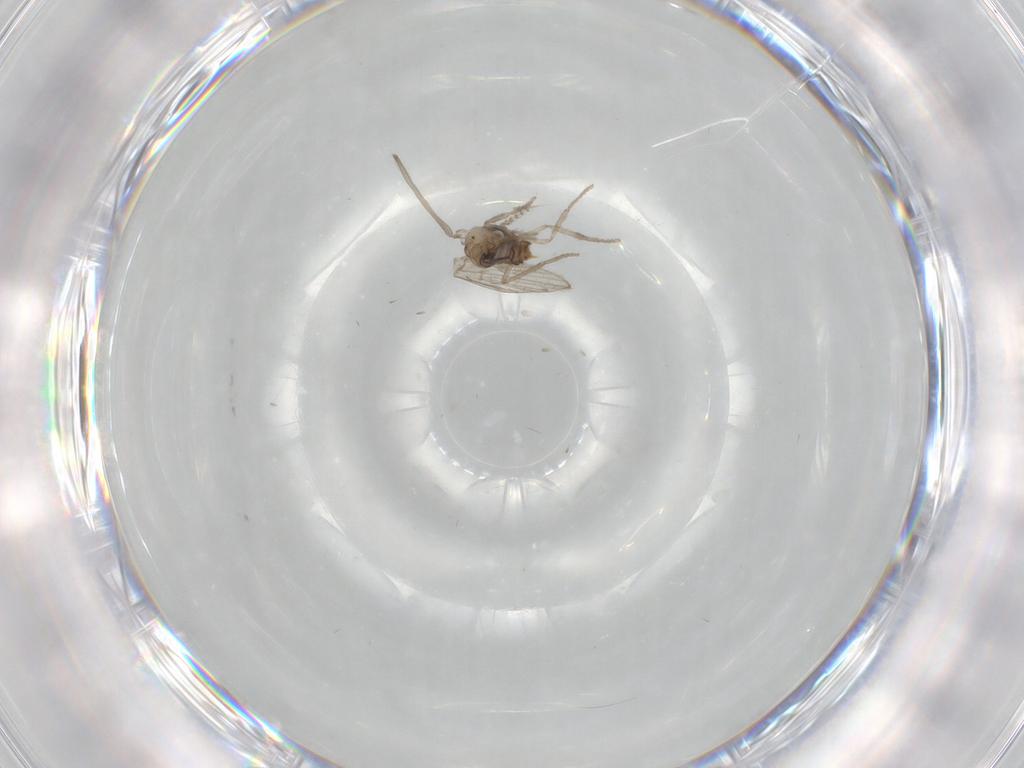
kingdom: Animalia
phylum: Arthropoda
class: Insecta
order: Diptera
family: Psychodidae
